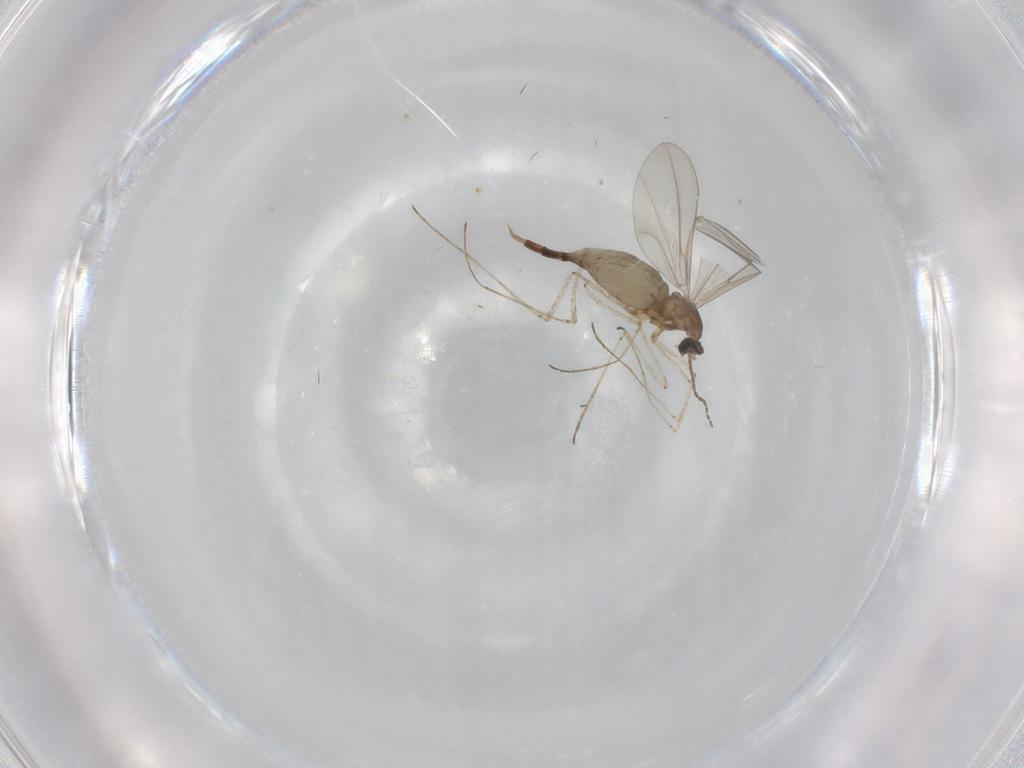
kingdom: Animalia
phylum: Arthropoda
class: Insecta
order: Diptera
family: Cecidomyiidae
